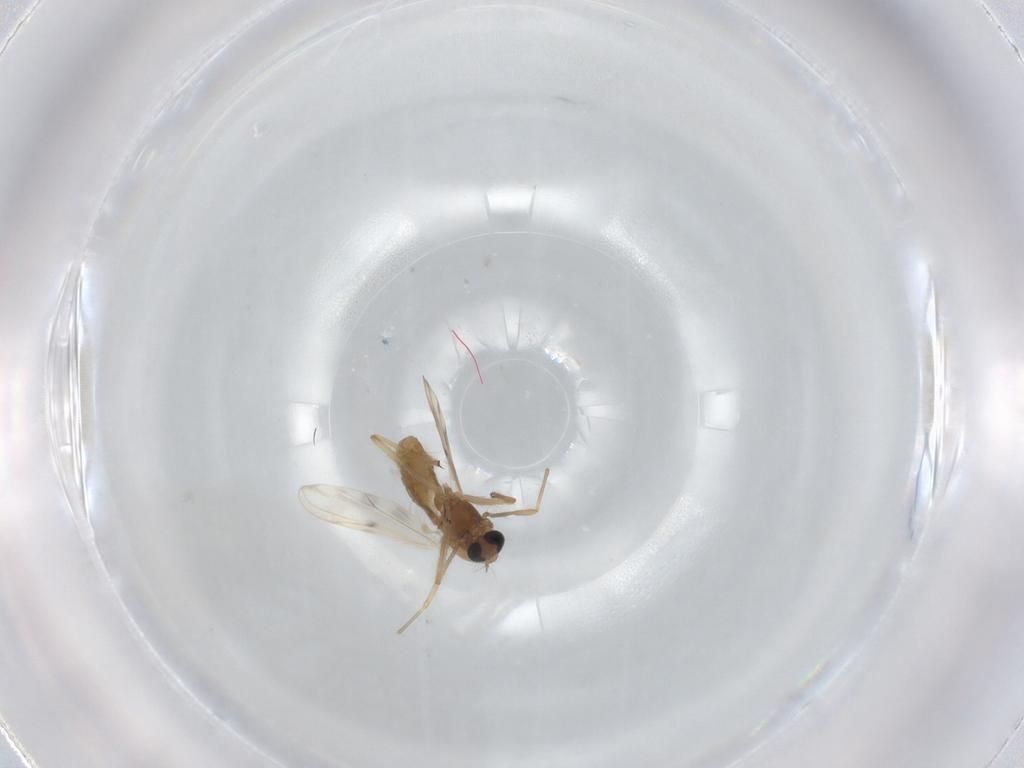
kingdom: Animalia
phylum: Arthropoda
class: Insecta
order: Diptera
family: Chironomidae
